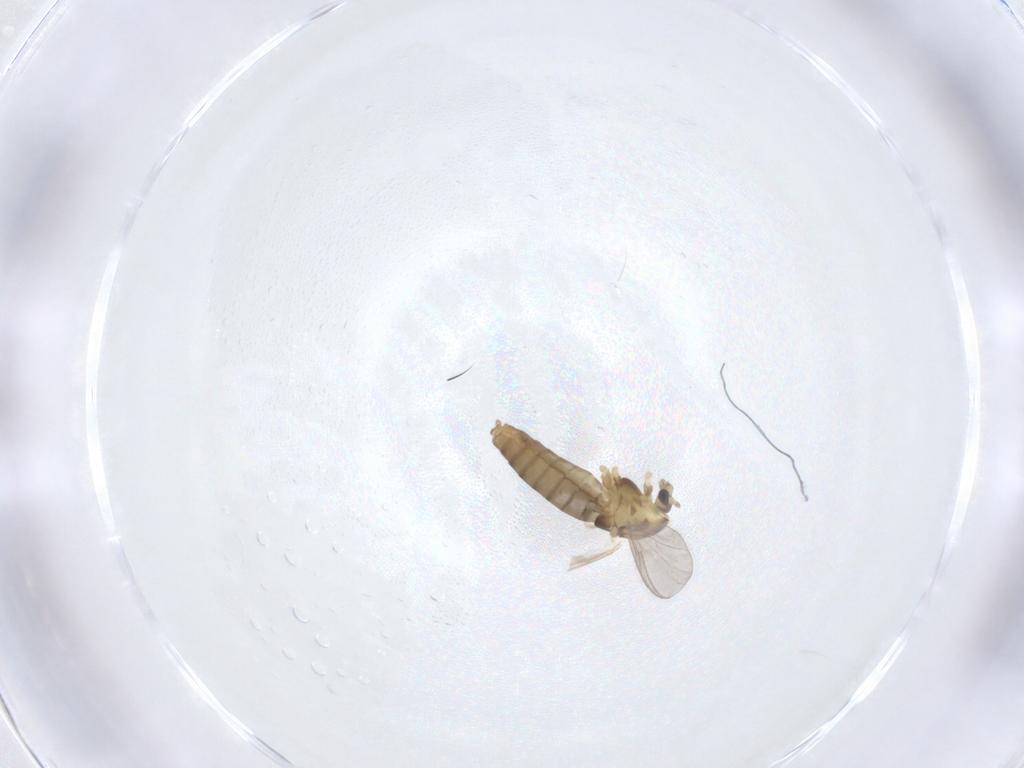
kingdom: Animalia
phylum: Arthropoda
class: Insecta
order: Diptera
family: Chironomidae
